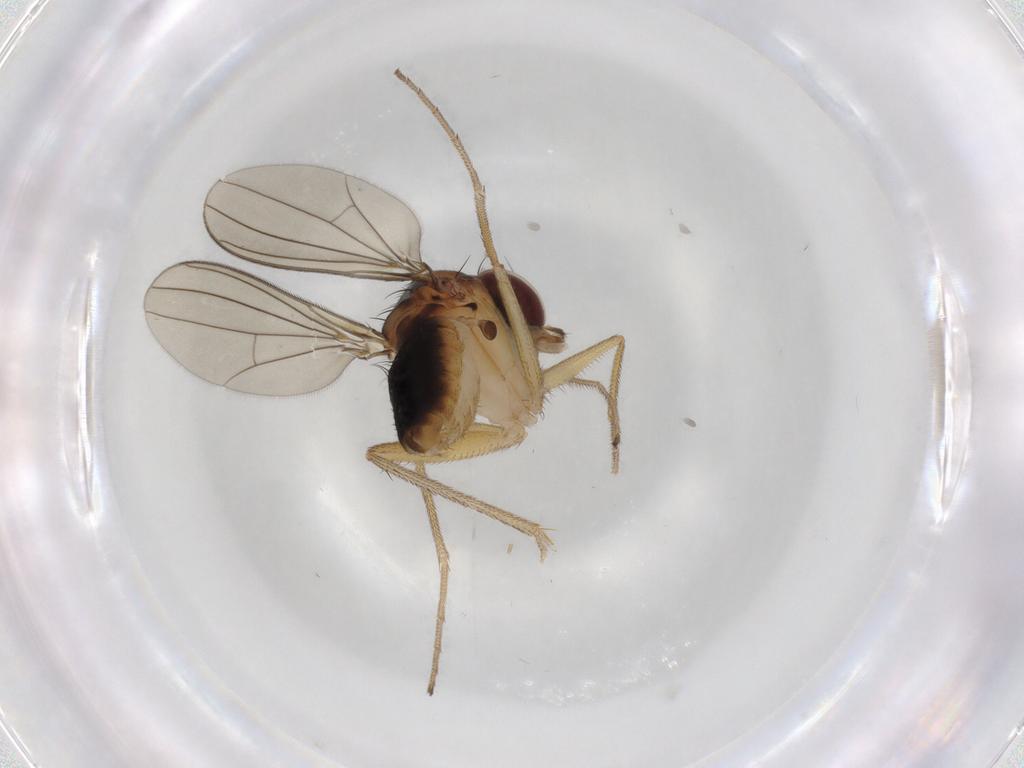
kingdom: Animalia
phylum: Arthropoda
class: Insecta
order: Diptera
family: Dolichopodidae
